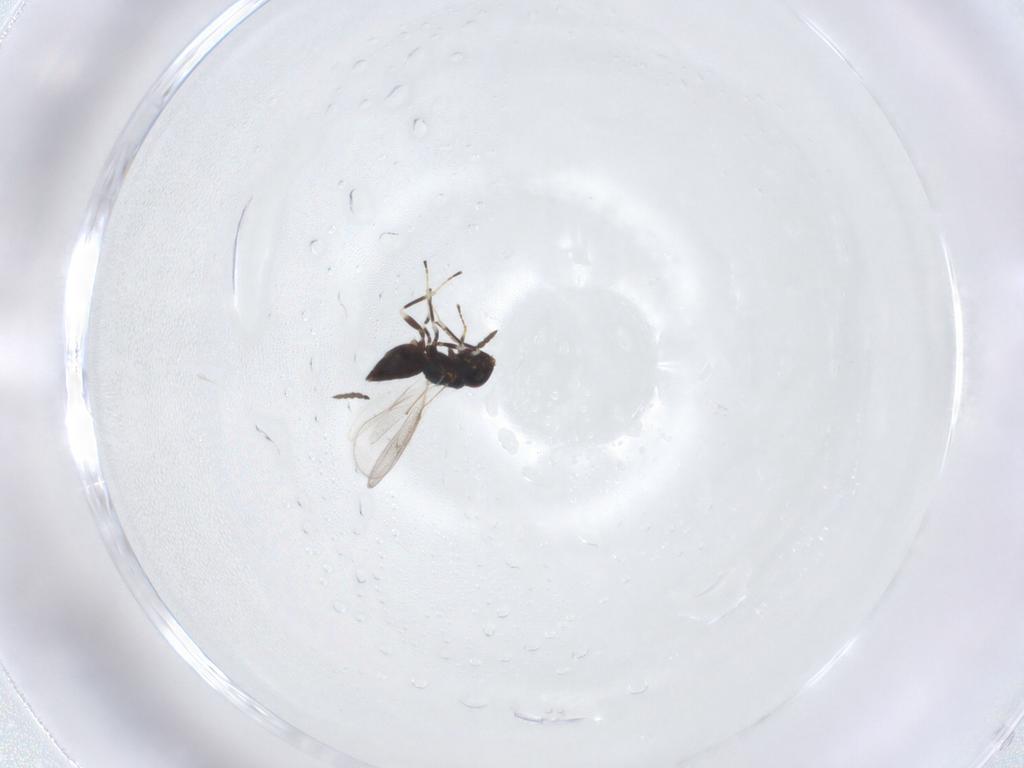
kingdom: Animalia
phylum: Arthropoda
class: Insecta
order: Hymenoptera
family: Eulophidae
